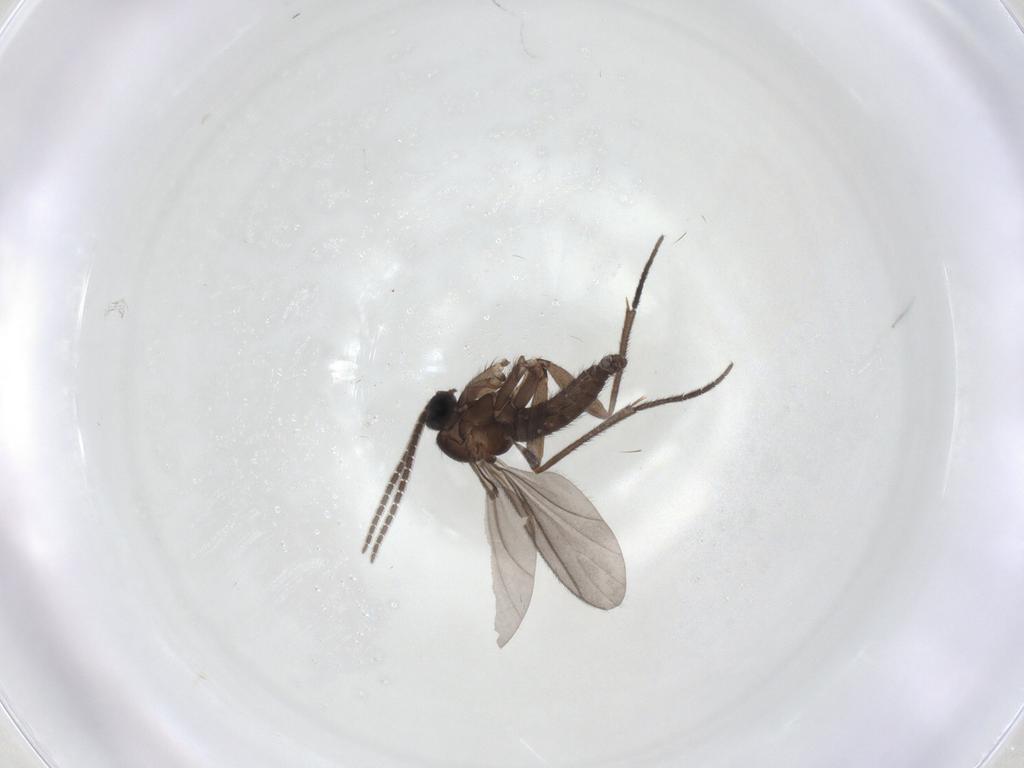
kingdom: Animalia
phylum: Arthropoda
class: Insecta
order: Diptera
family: Sciaridae
